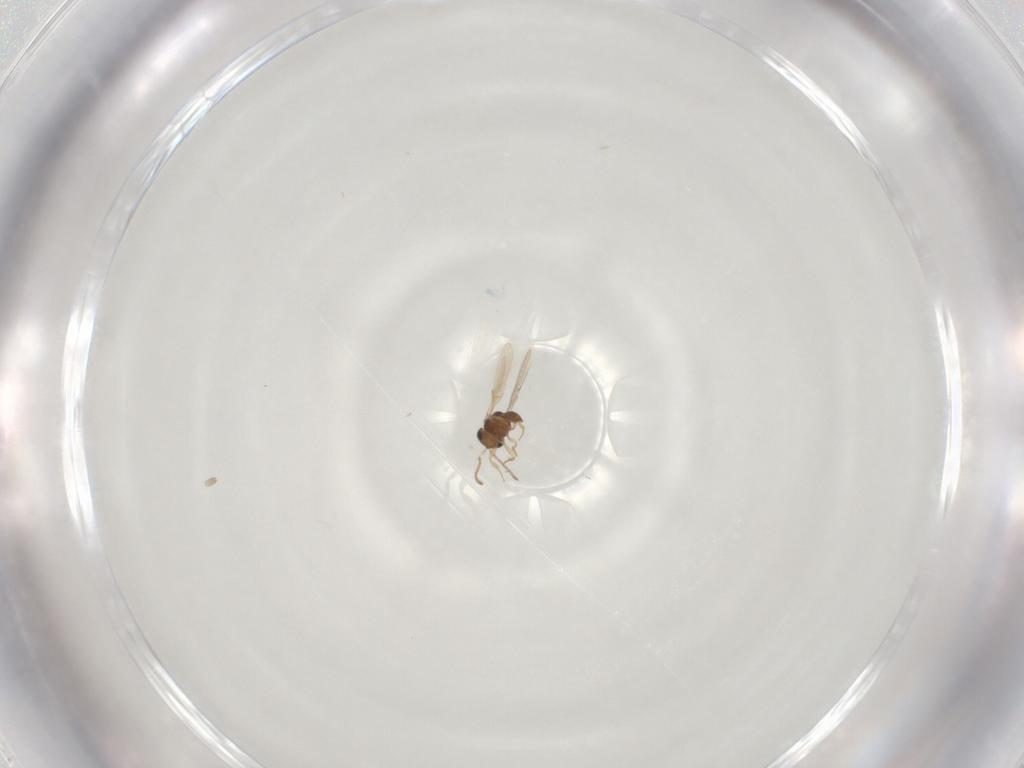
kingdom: Animalia
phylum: Arthropoda
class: Insecta
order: Hymenoptera
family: Scelionidae
